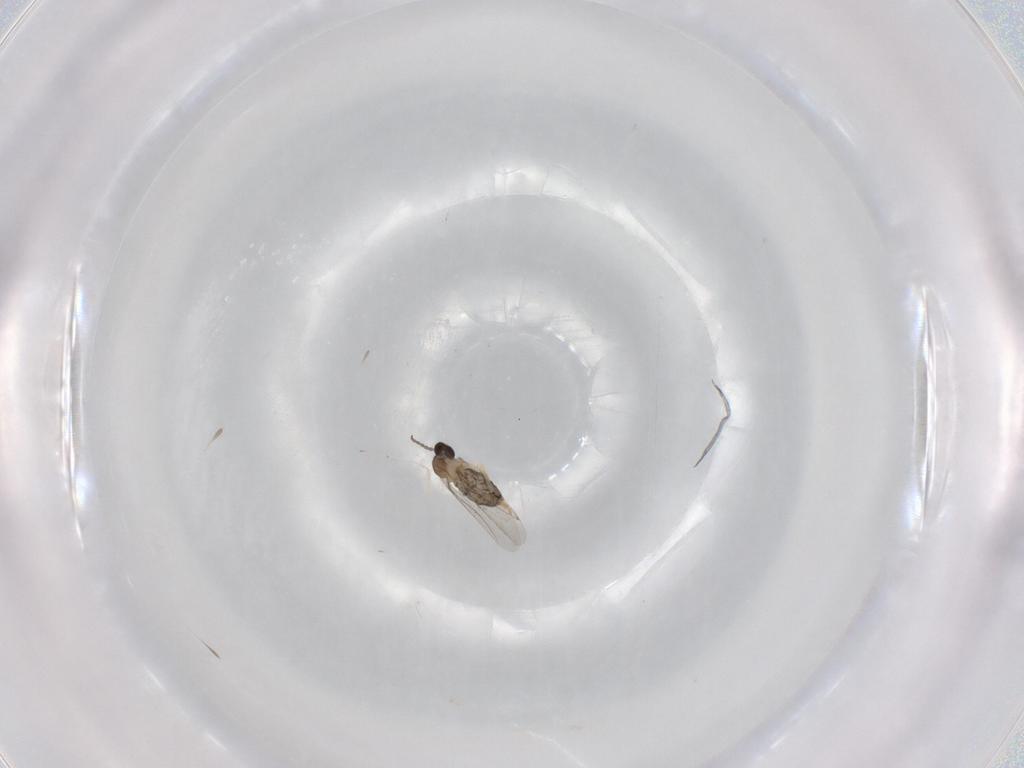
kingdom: Animalia
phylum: Arthropoda
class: Insecta
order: Diptera
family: Cecidomyiidae
